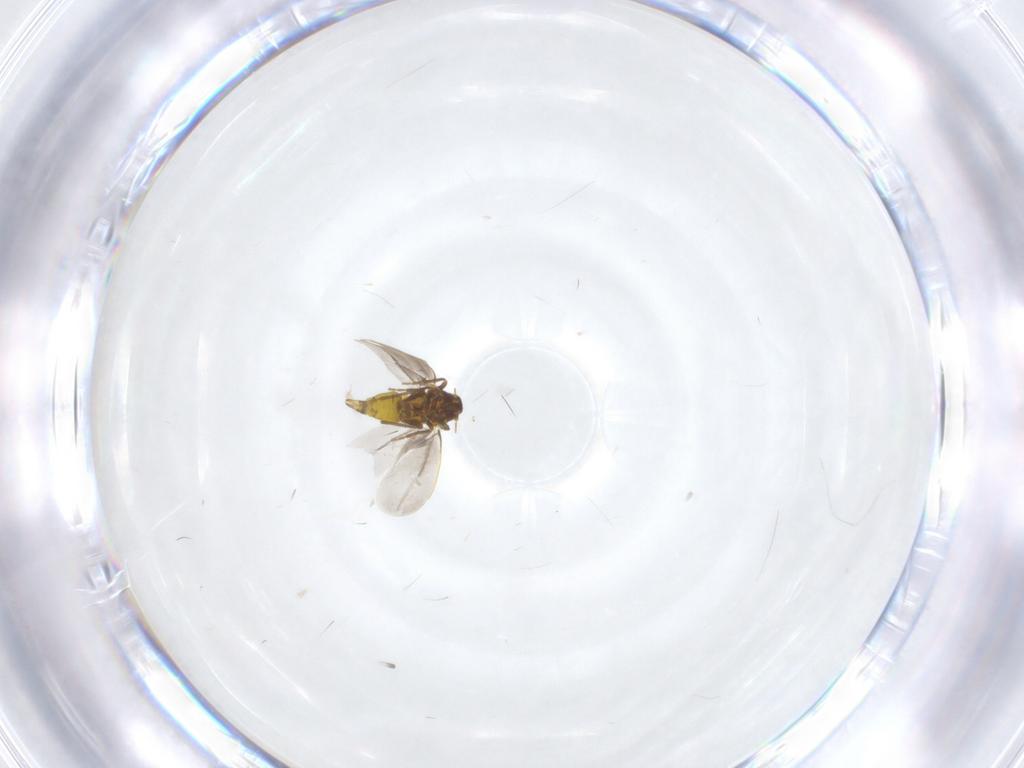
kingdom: Animalia
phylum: Arthropoda
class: Insecta
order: Hemiptera
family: Aleyrodidae
